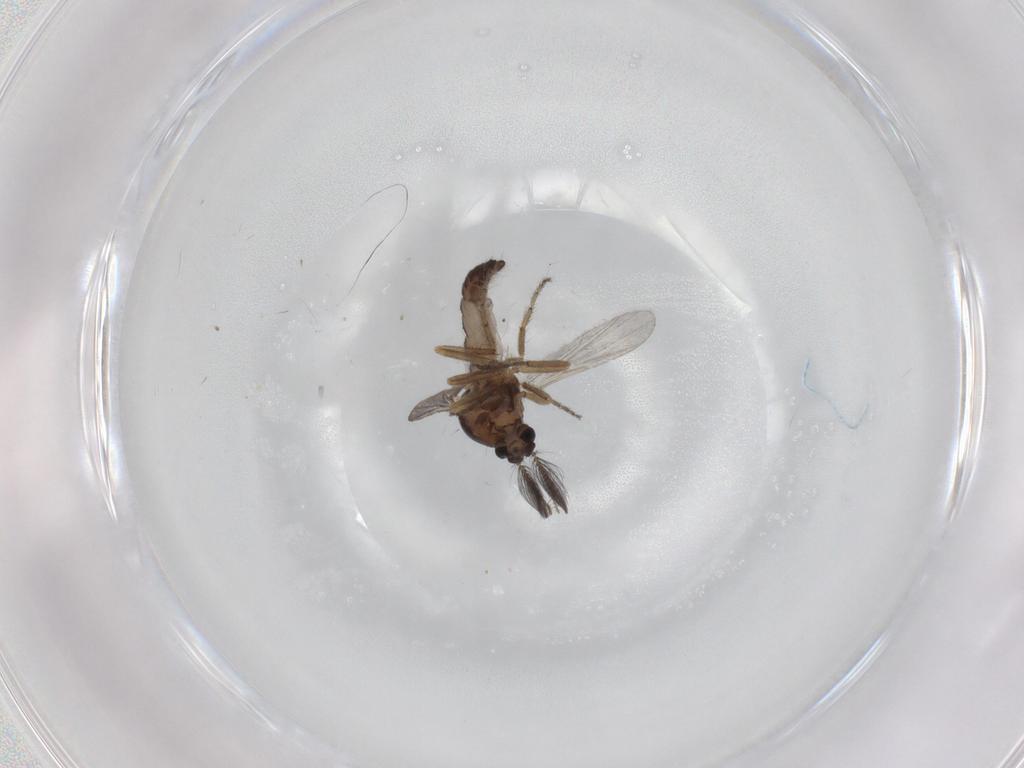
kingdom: Animalia
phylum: Arthropoda
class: Insecta
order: Diptera
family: Ceratopogonidae
